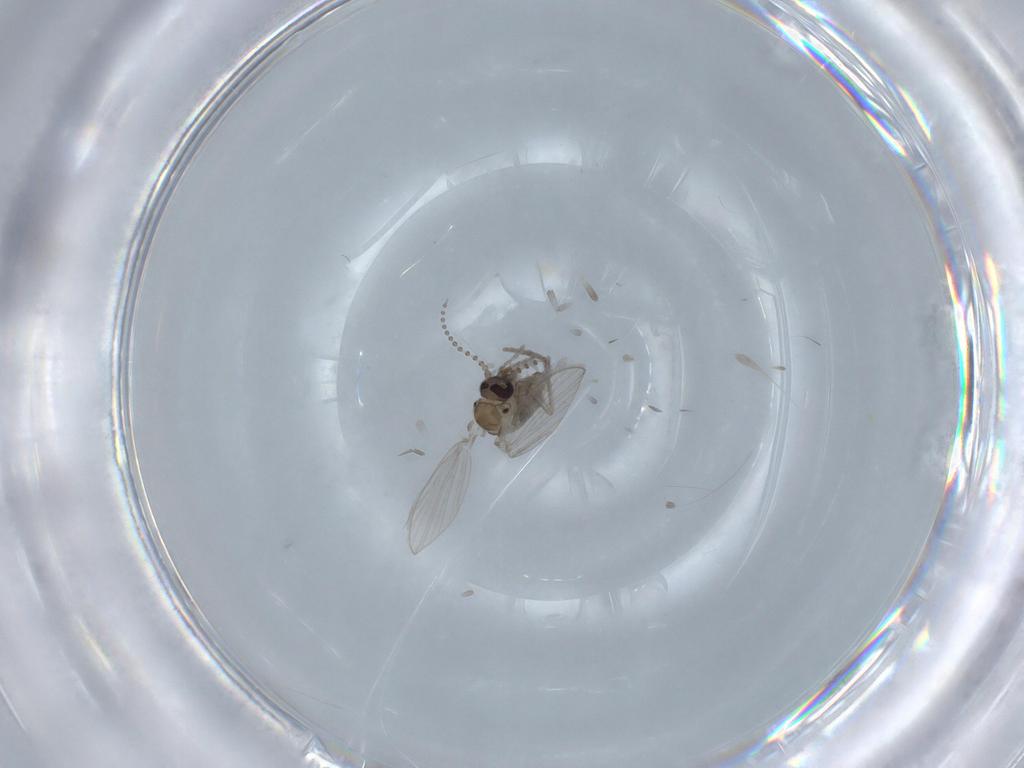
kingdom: Animalia
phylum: Arthropoda
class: Insecta
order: Diptera
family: Psychodidae
